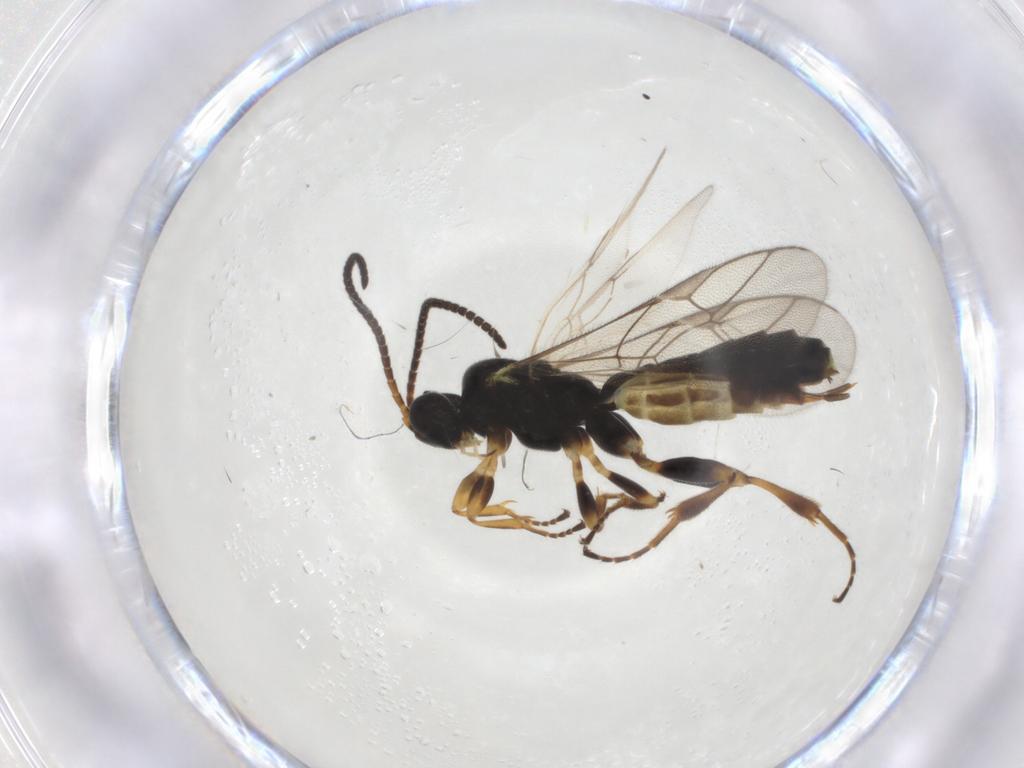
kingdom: Animalia
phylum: Arthropoda
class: Insecta
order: Hymenoptera
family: Ichneumonidae
